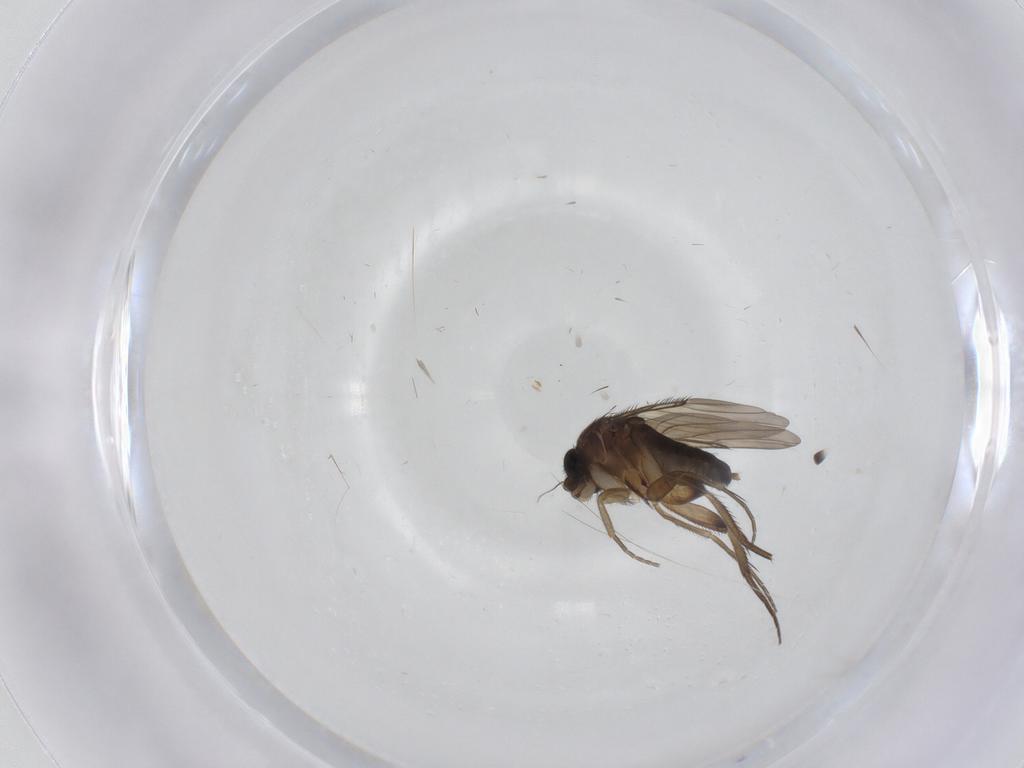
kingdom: Animalia
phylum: Arthropoda
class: Insecta
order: Diptera
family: Phoridae
